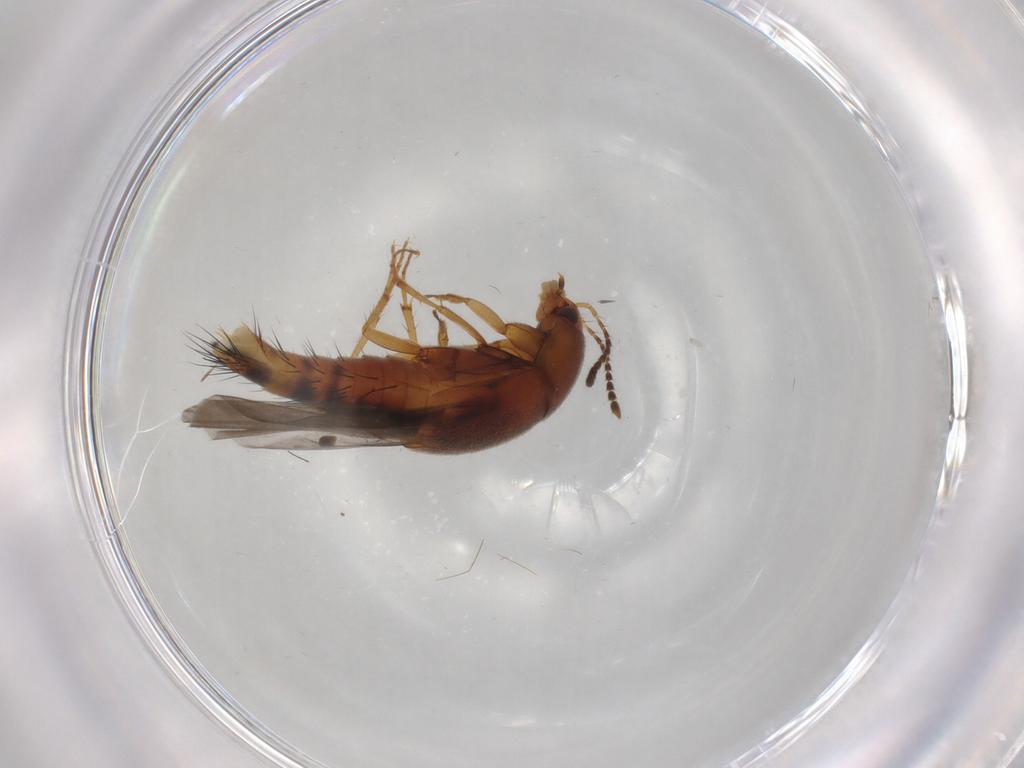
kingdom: Animalia
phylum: Arthropoda
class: Insecta
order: Coleoptera
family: Staphylinidae
